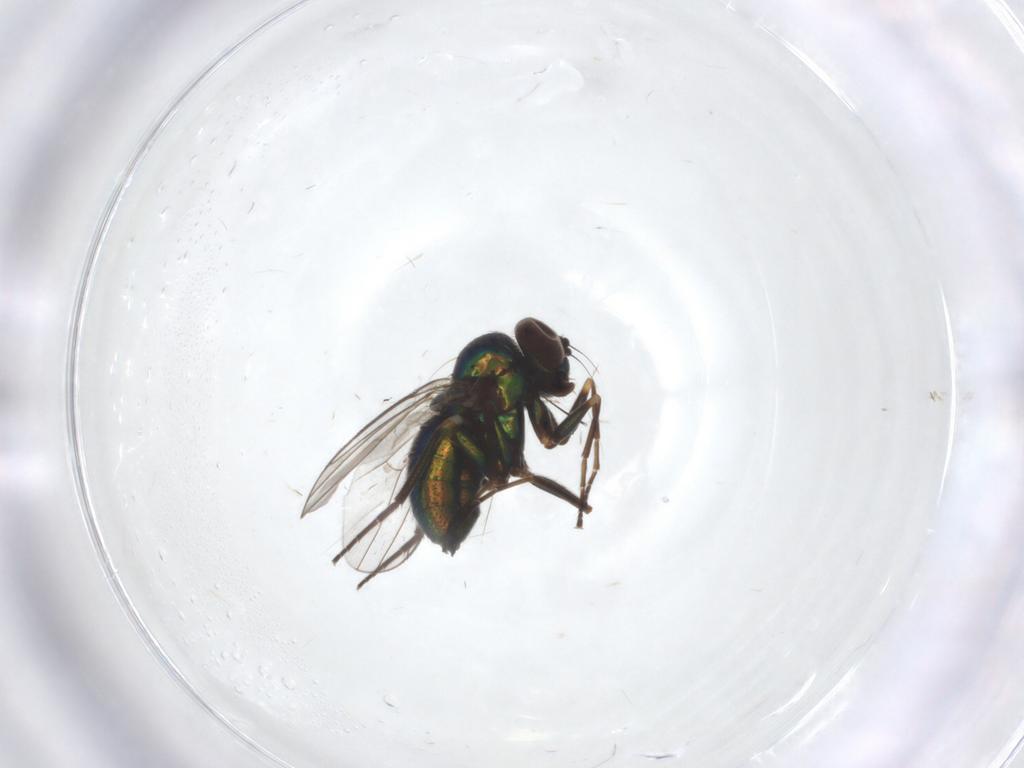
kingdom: Animalia
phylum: Arthropoda
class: Insecta
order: Diptera
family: Dolichopodidae
